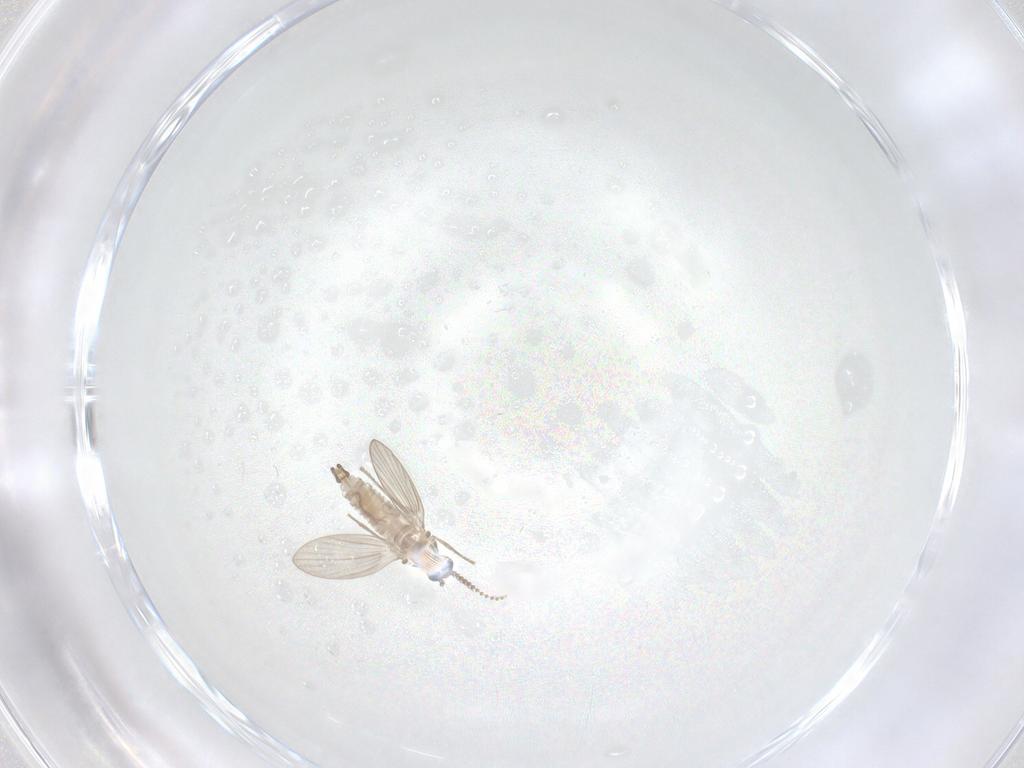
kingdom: Animalia
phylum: Arthropoda
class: Insecta
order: Diptera
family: Psychodidae
